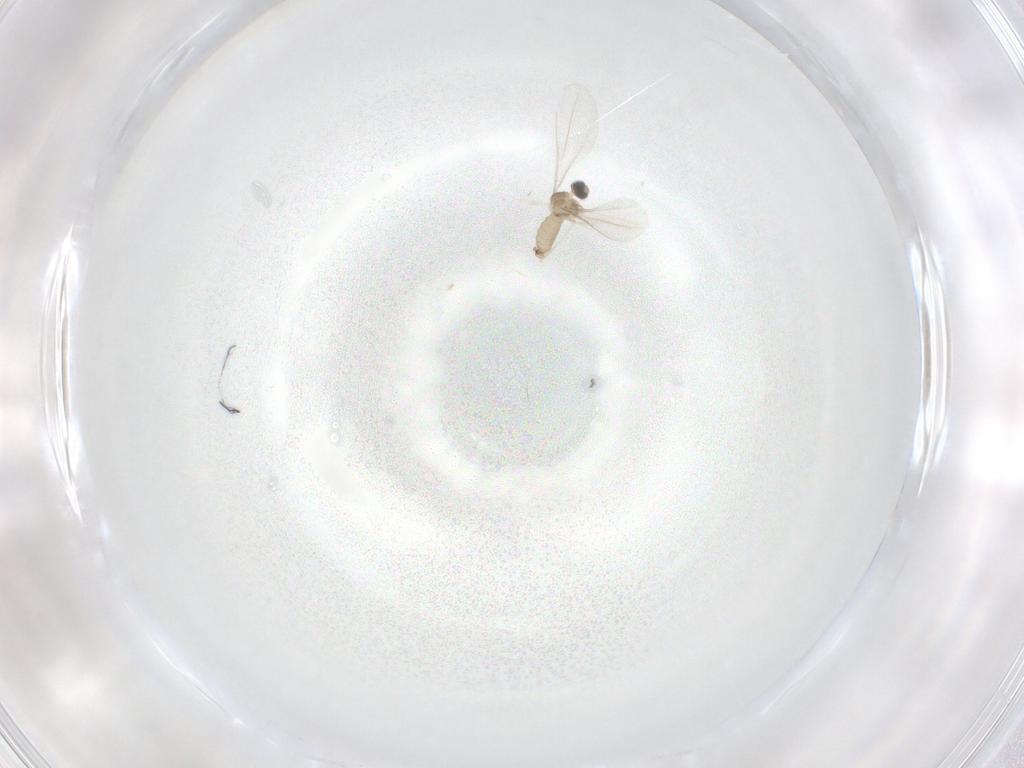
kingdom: Animalia
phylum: Arthropoda
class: Insecta
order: Diptera
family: Cecidomyiidae
